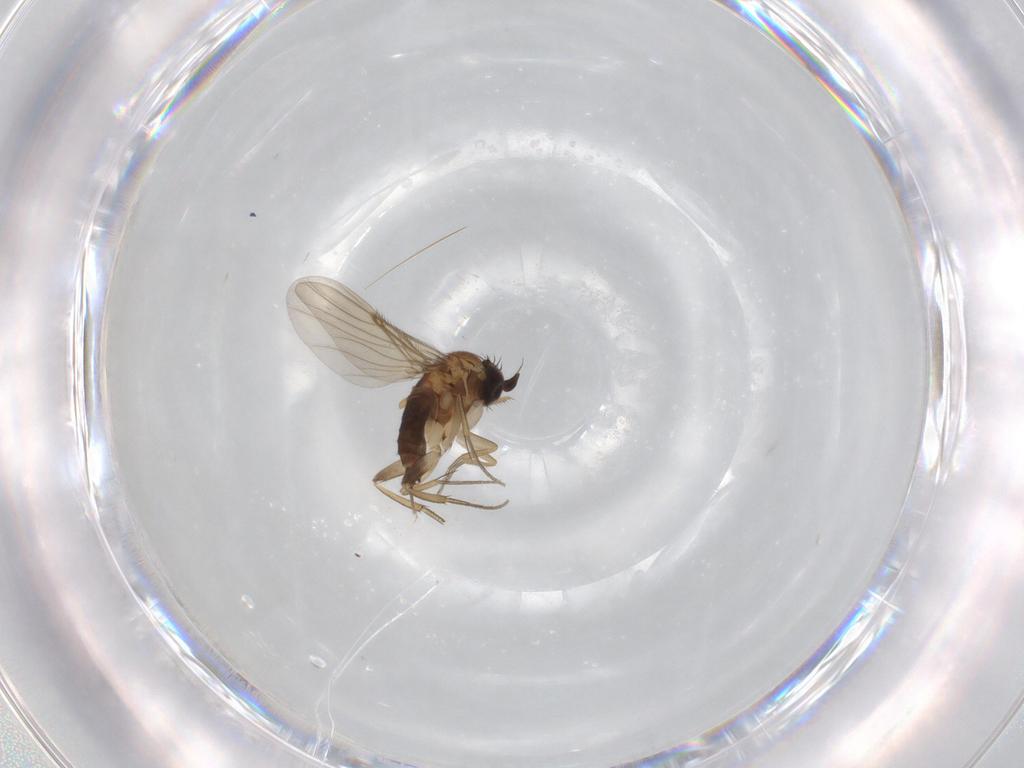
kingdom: Animalia
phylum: Arthropoda
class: Insecta
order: Diptera
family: Phoridae
